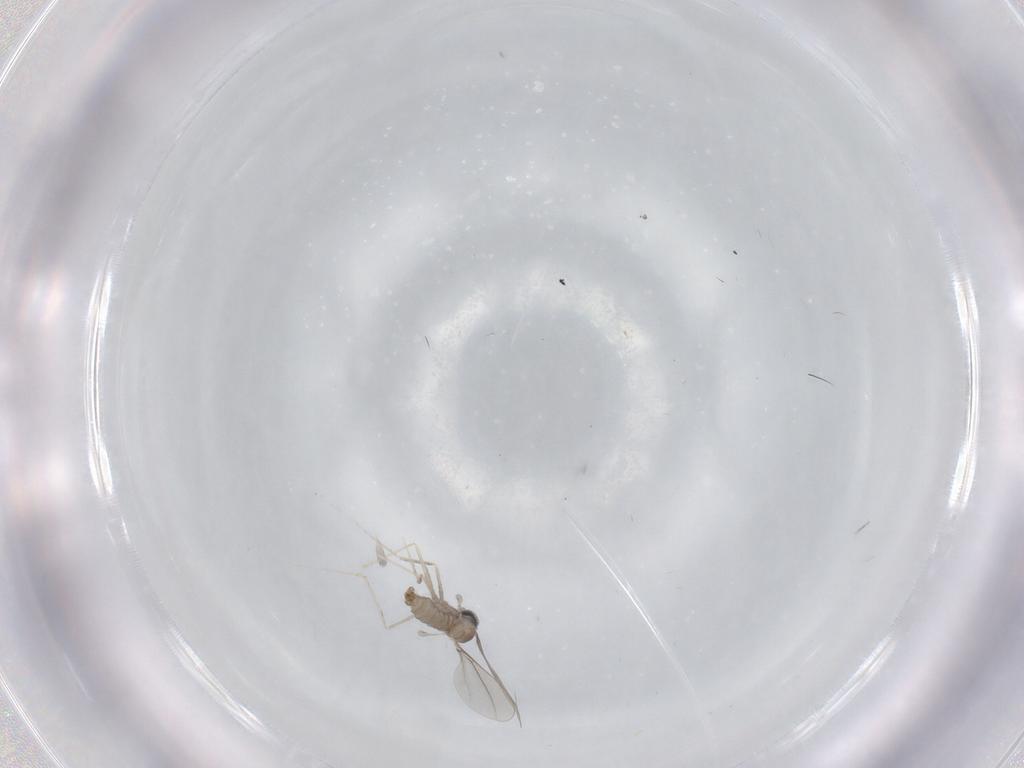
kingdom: Animalia
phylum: Arthropoda
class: Insecta
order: Diptera
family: Cecidomyiidae
